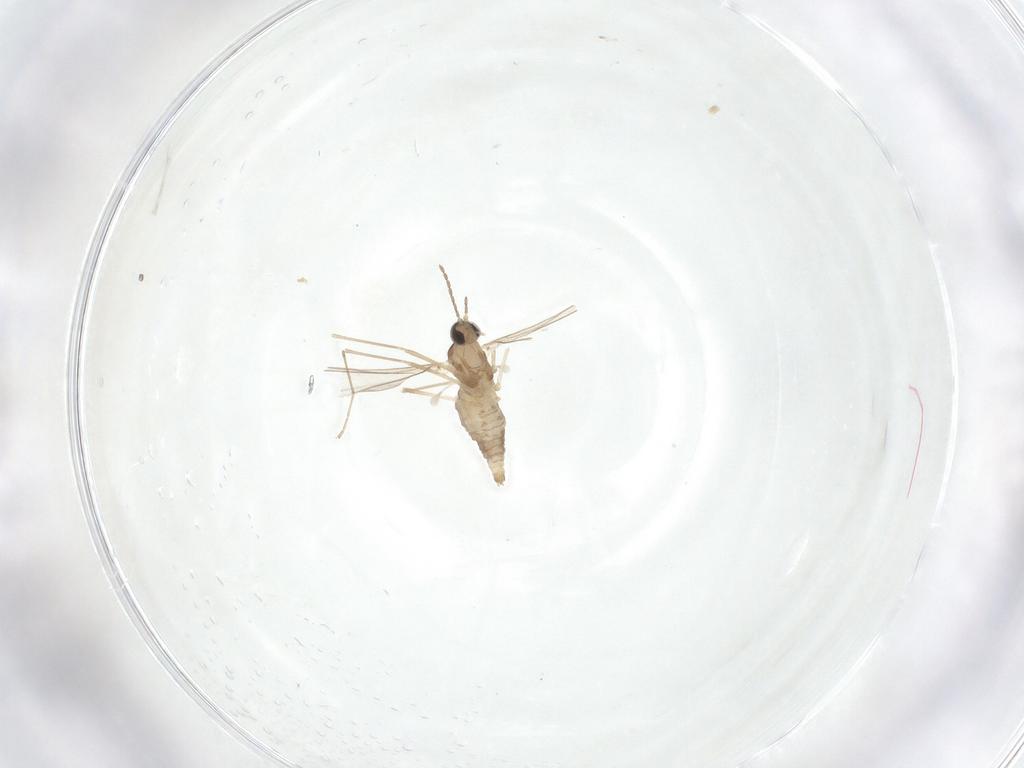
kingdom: Animalia
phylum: Arthropoda
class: Insecta
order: Diptera
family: Cecidomyiidae
